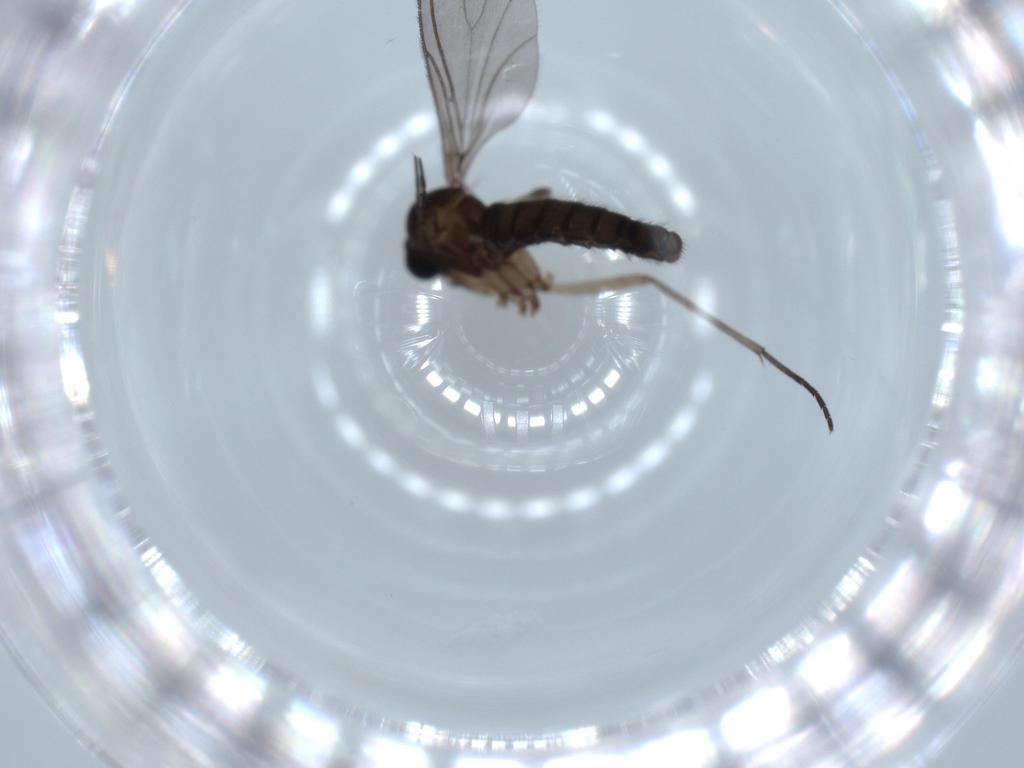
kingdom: Animalia
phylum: Arthropoda
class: Insecta
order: Diptera
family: Sciaridae
